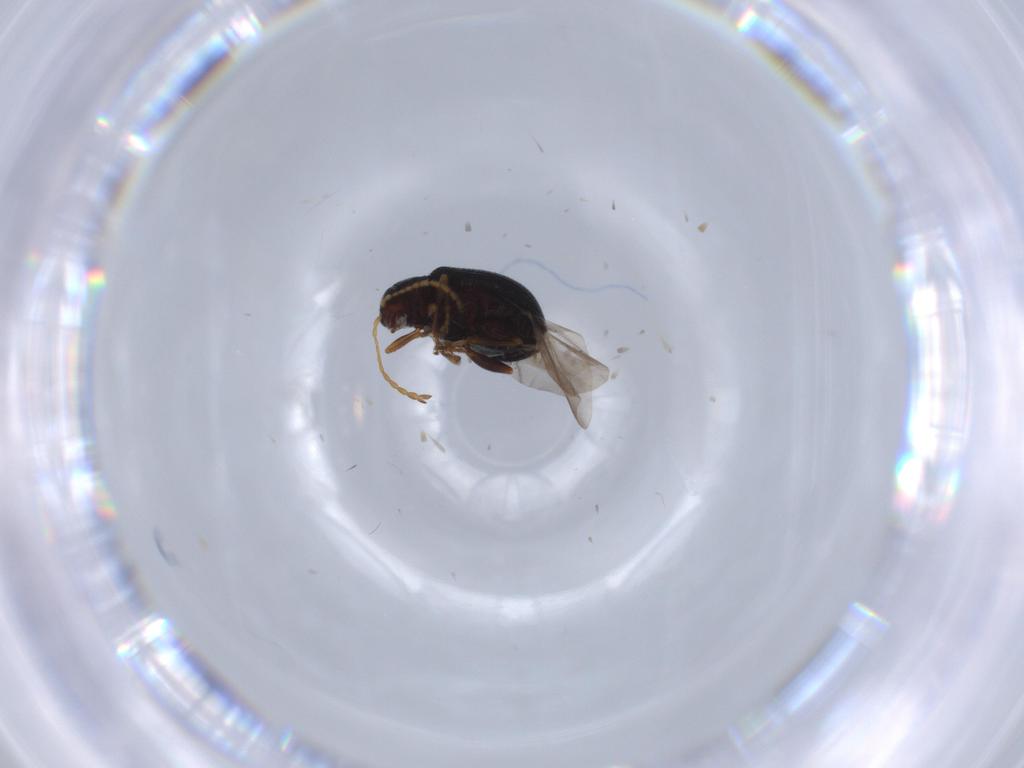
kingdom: Animalia
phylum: Arthropoda
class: Insecta
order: Coleoptera
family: Chrysomelidae
